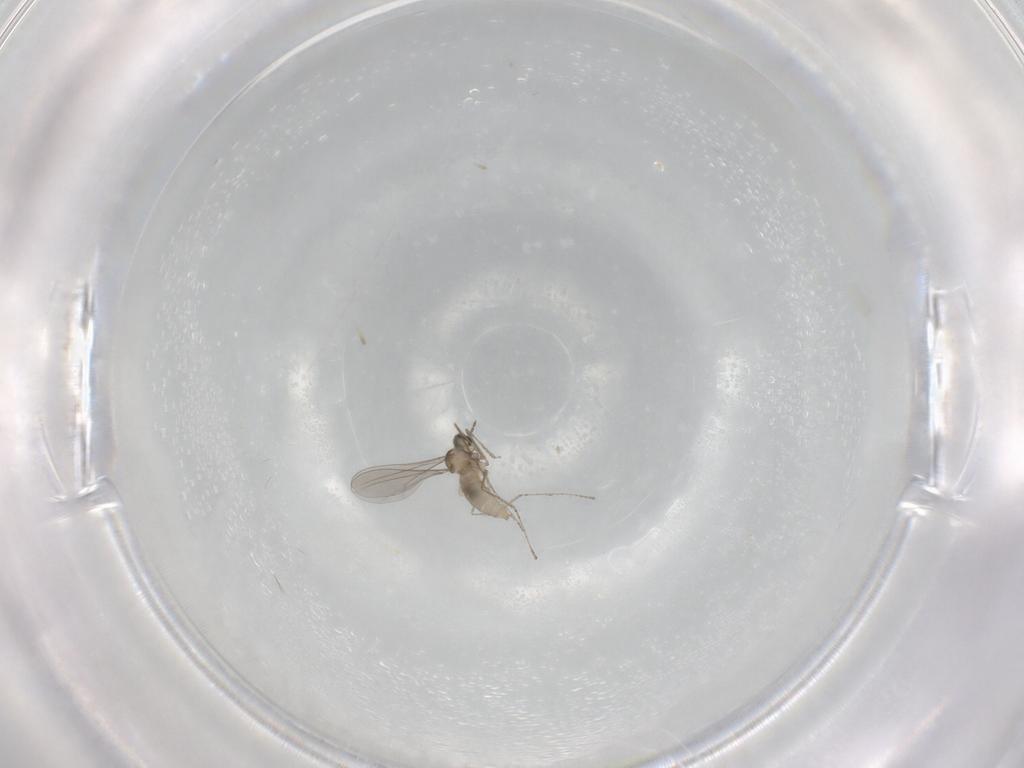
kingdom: Animalia
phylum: Arthropoda
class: Insecta
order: Diptera
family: Cecidomyiidae
